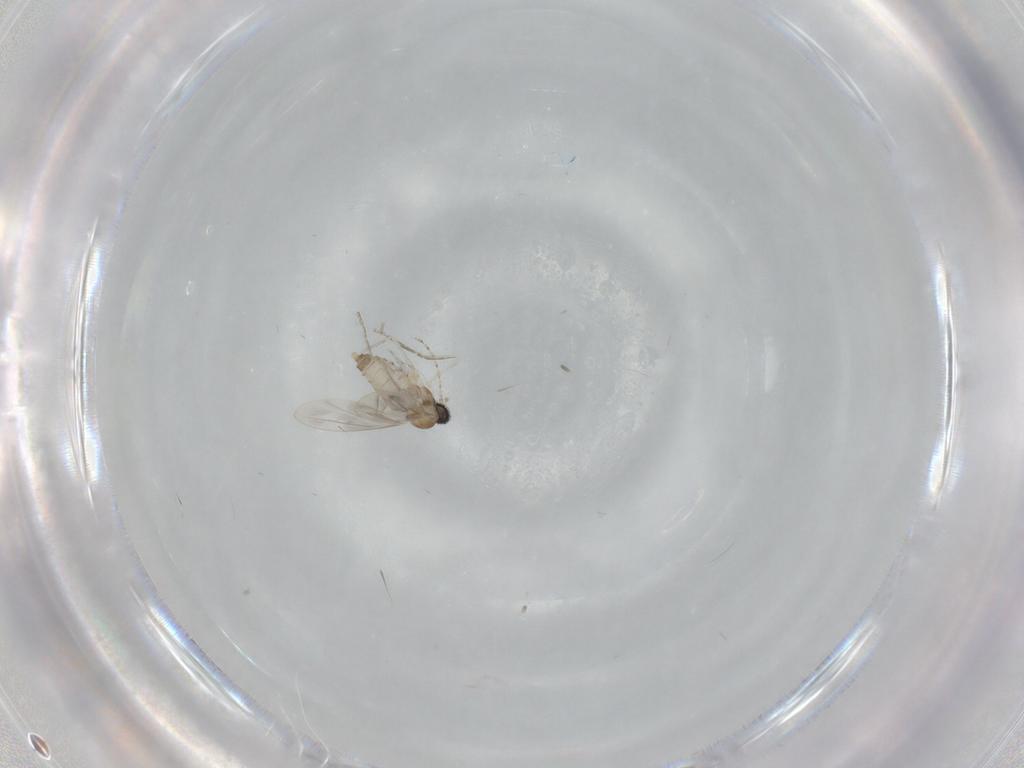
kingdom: Animalia
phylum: Arthropoda
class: Insecta
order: Diptera
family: Cecidomyiidae
